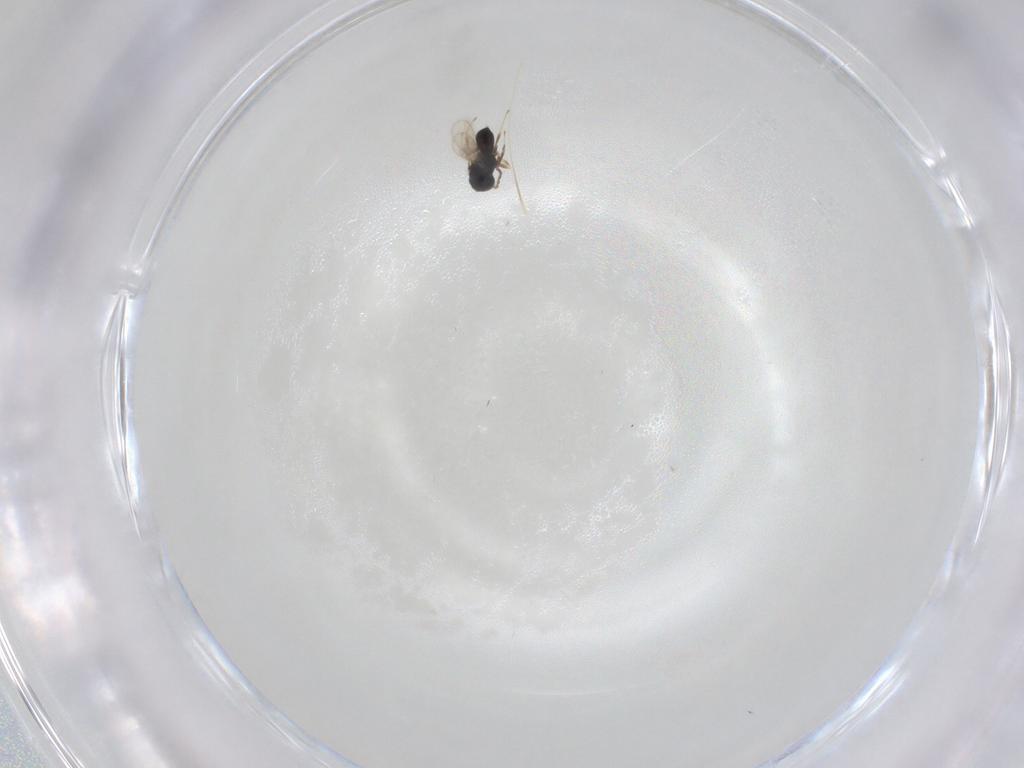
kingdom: Animalia
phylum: Arthropoda
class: Insecta
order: Hymenoptera
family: Scelionidae
